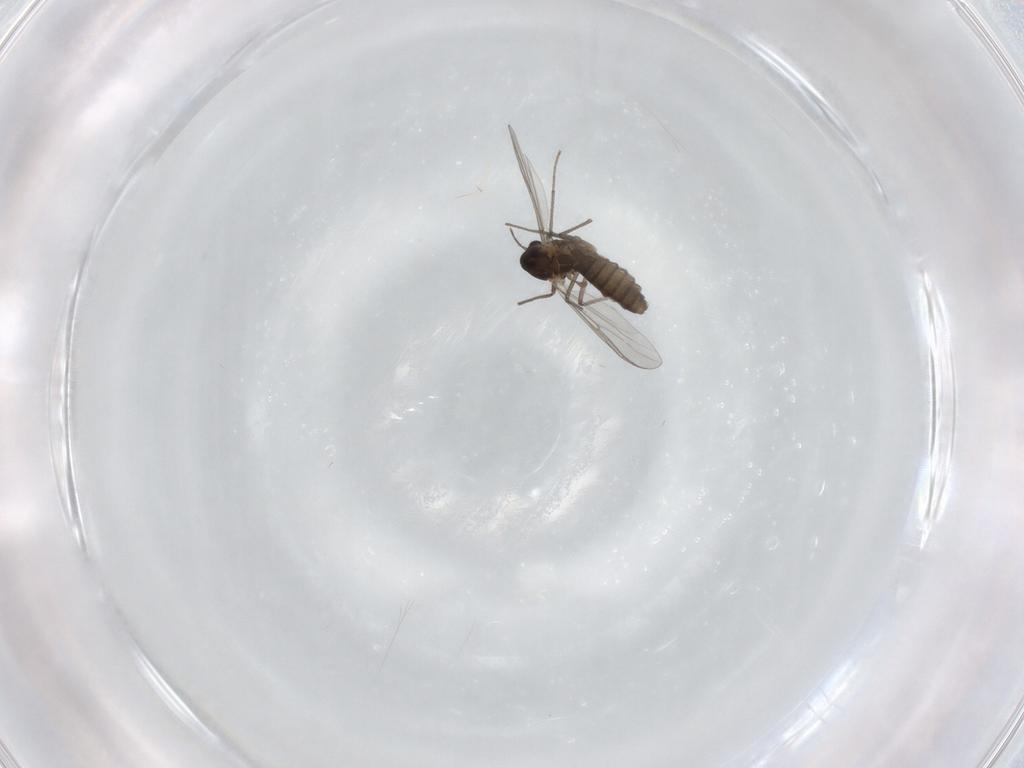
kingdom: Animalia
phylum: Arthropoda
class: Insecta
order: Diptera
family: Chironomidae
